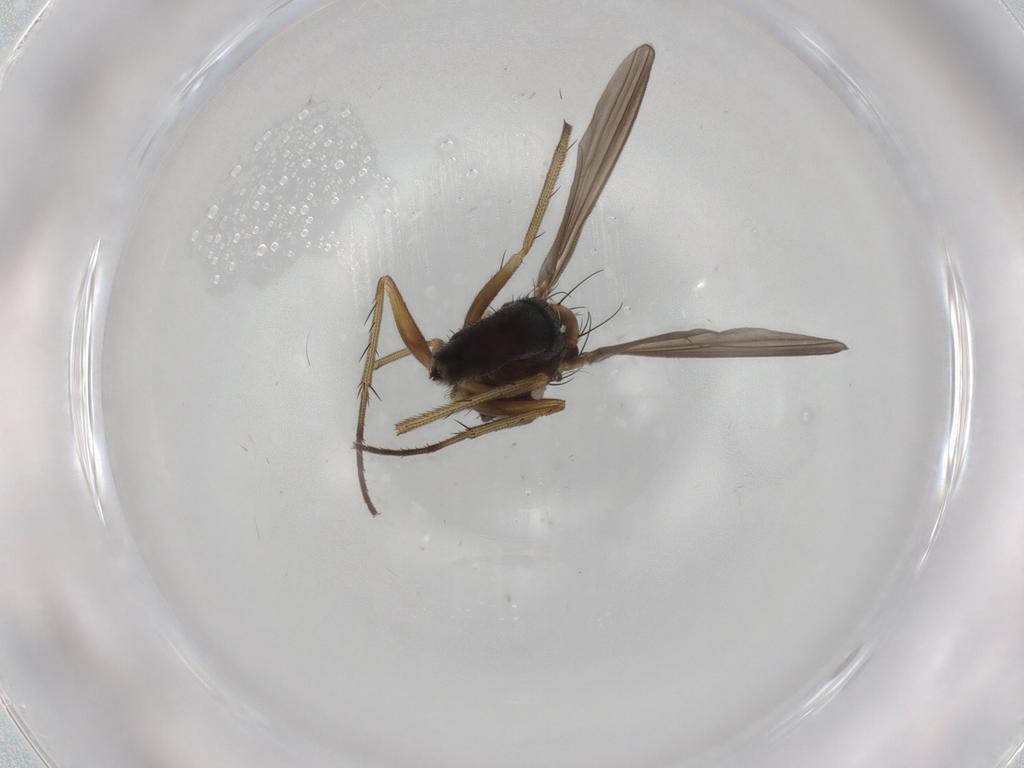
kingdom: Animalia
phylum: Arthropoda
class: Insecta
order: Diptera
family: Dolichopodidae
